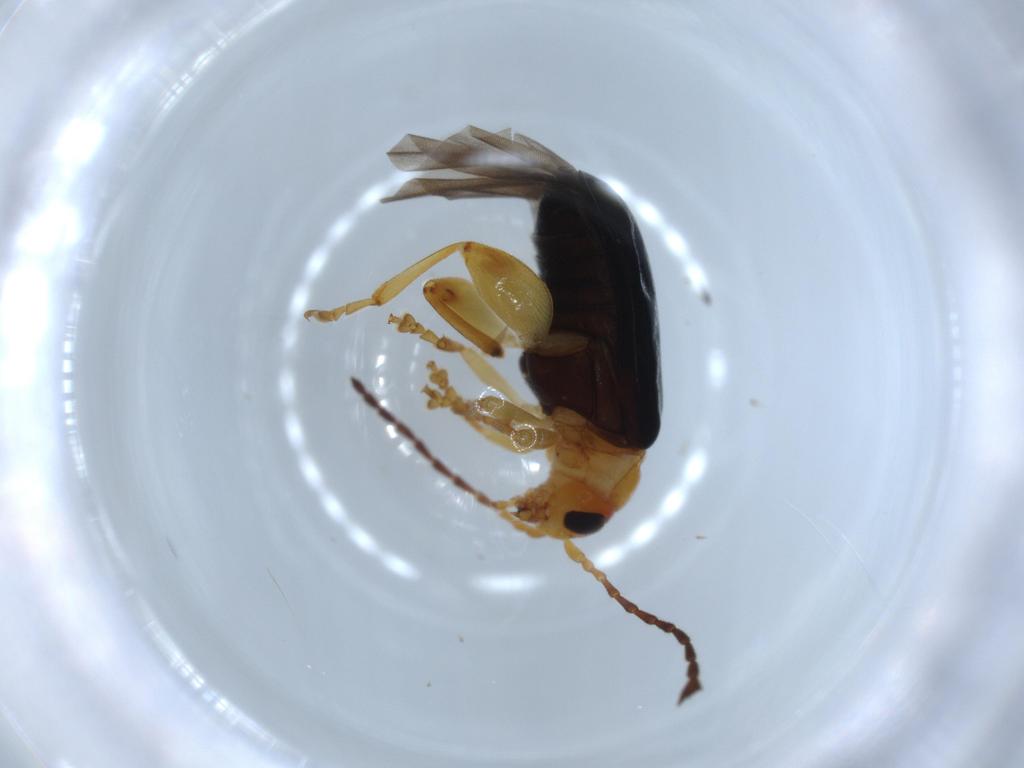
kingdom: Animalia
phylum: Arthropoda
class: Insecta
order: Coleoptera
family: Chrysomelidae
